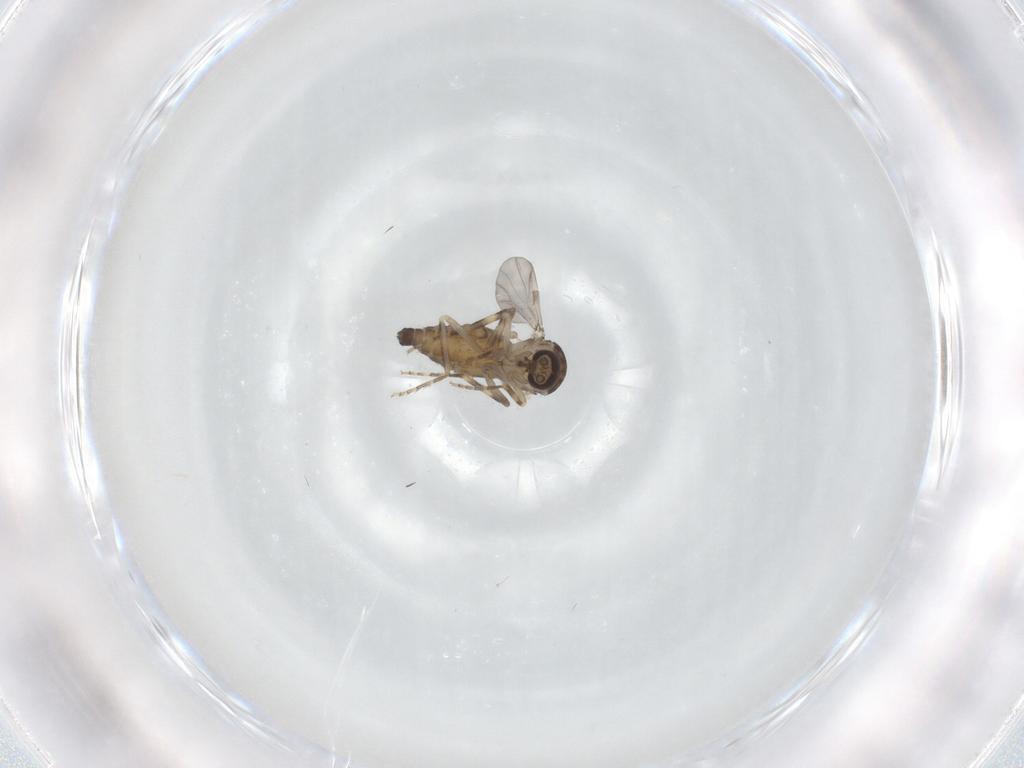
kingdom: Animalia
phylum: Arthropoda
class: Insecta
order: Diptera
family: Ceratopogonidae
